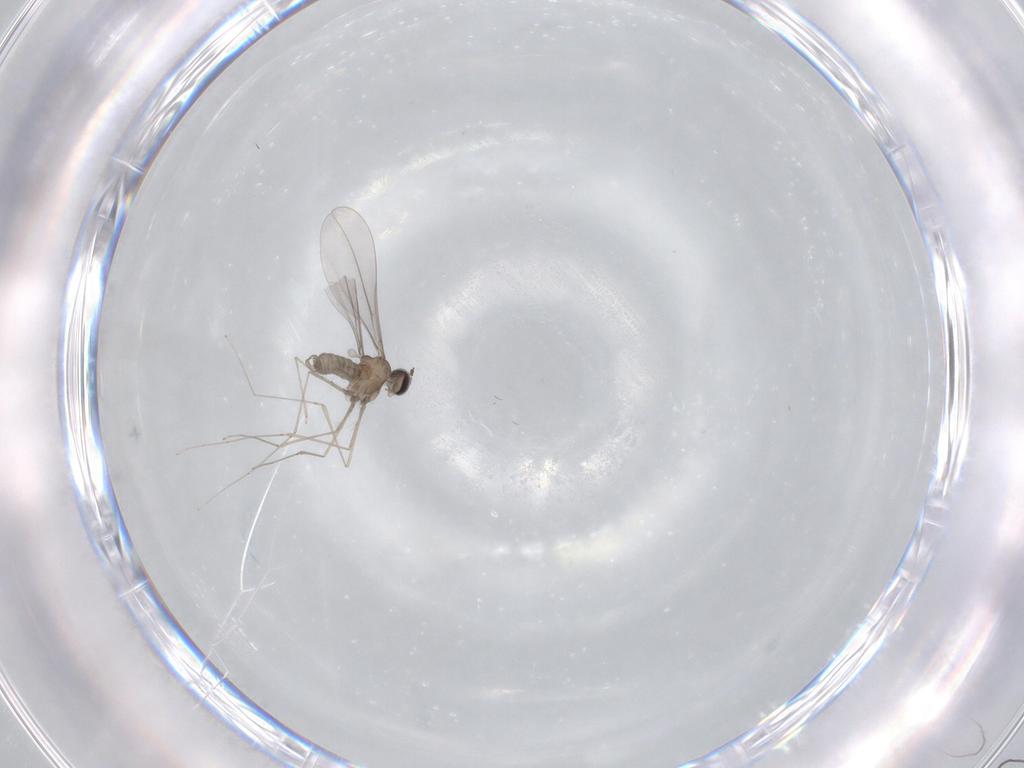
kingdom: Animalia
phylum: Arthropoda
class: Insecta
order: Diptera
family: Cecidomyiidae
